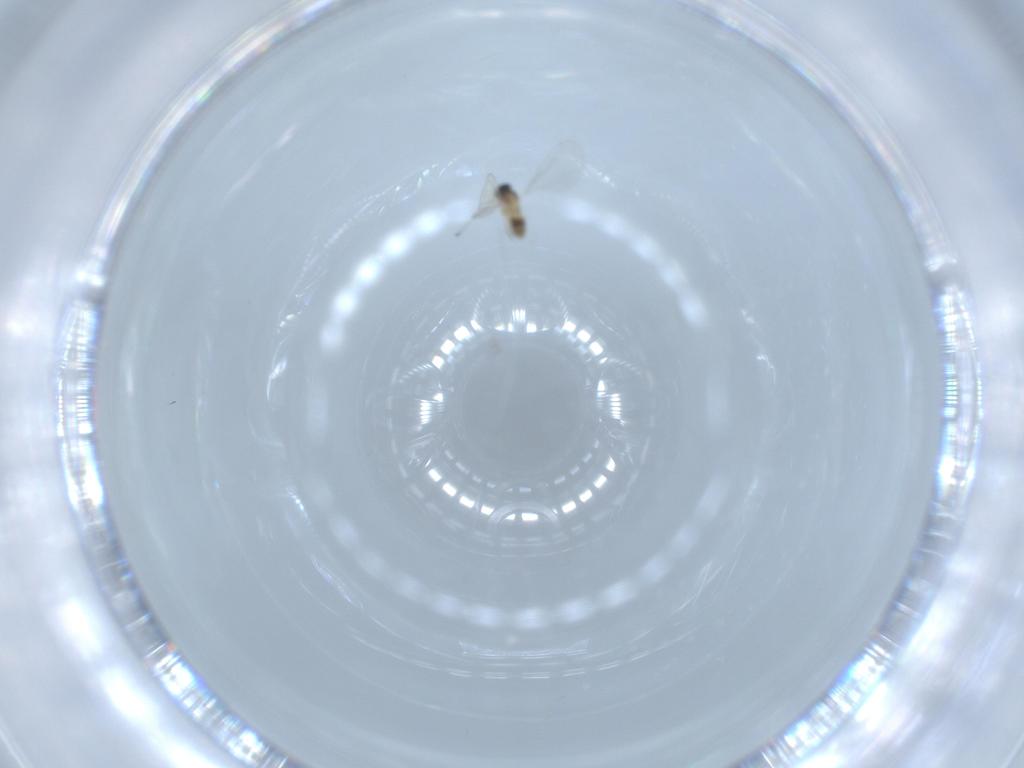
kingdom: Animalia
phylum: Arthropoda
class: Insecta
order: Diptera
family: Cecidomyiidae
